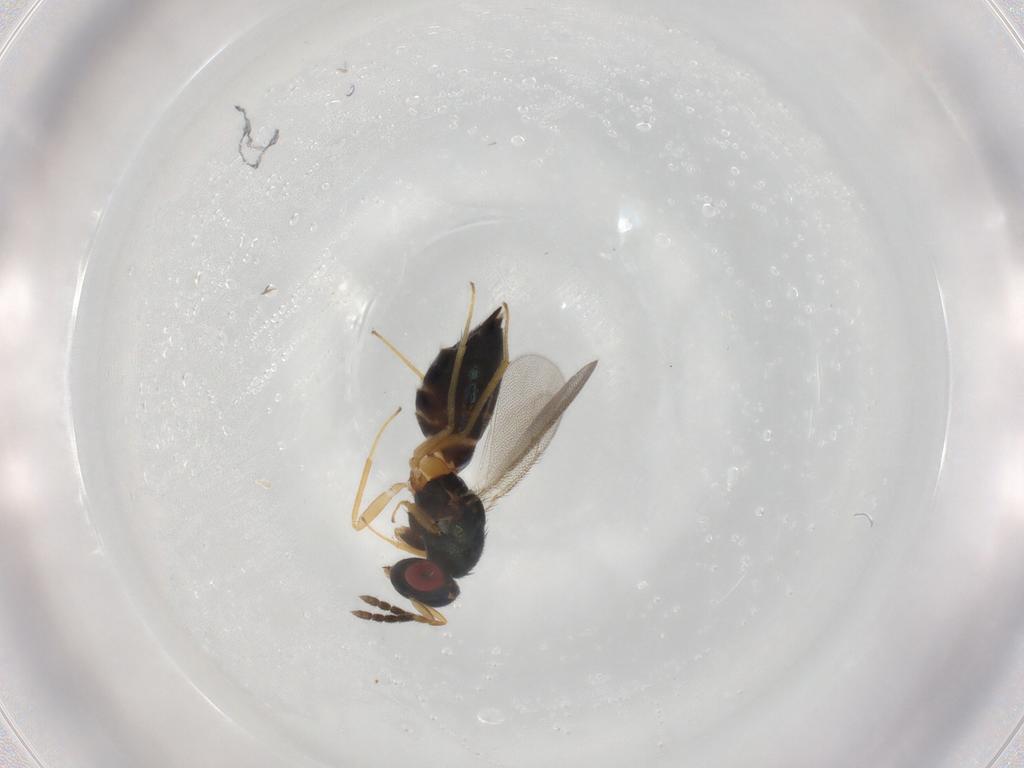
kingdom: Animalia
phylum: Arthropoda
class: Insecta
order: Hymenoptera
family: Eulophidae
